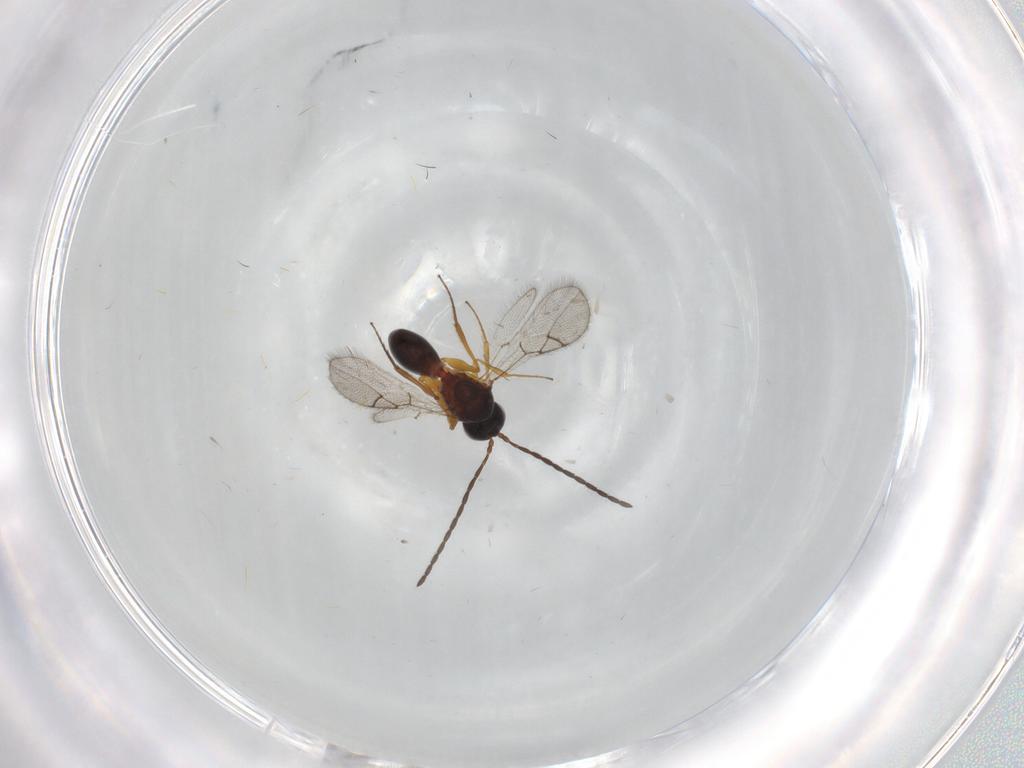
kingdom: Animalia
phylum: Arthropoda
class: Insecta
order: Hymenoptera
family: Figitidae
